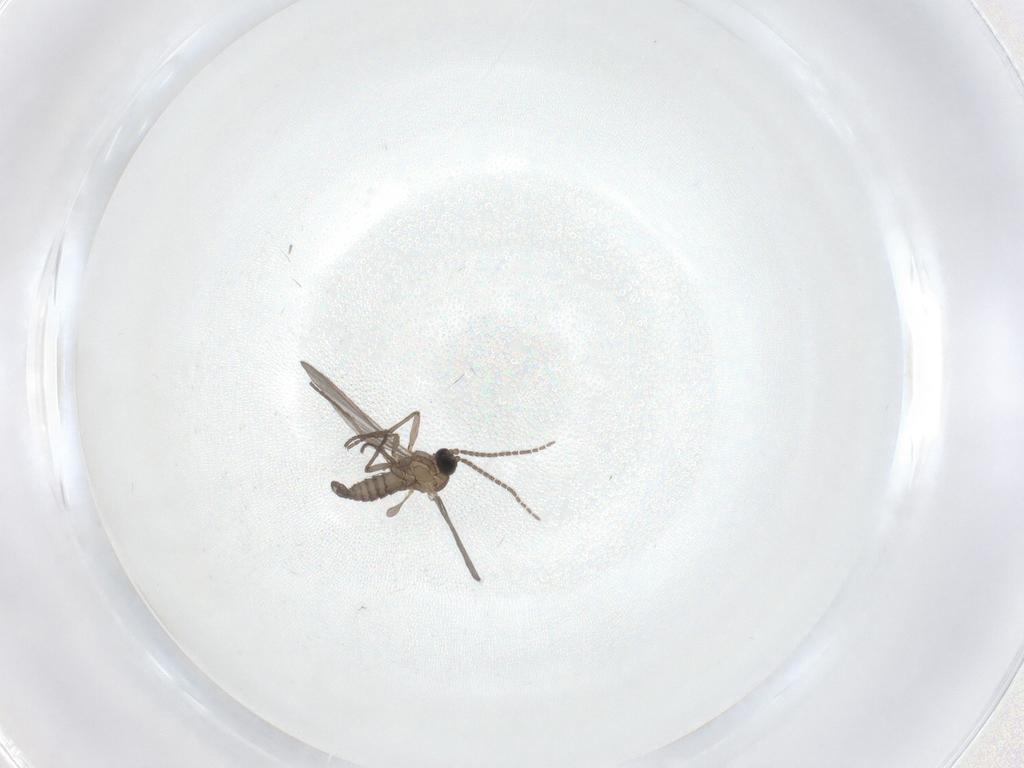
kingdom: Animalia
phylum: Arthropoda
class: Insecta
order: Diptera
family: Sciaridae
